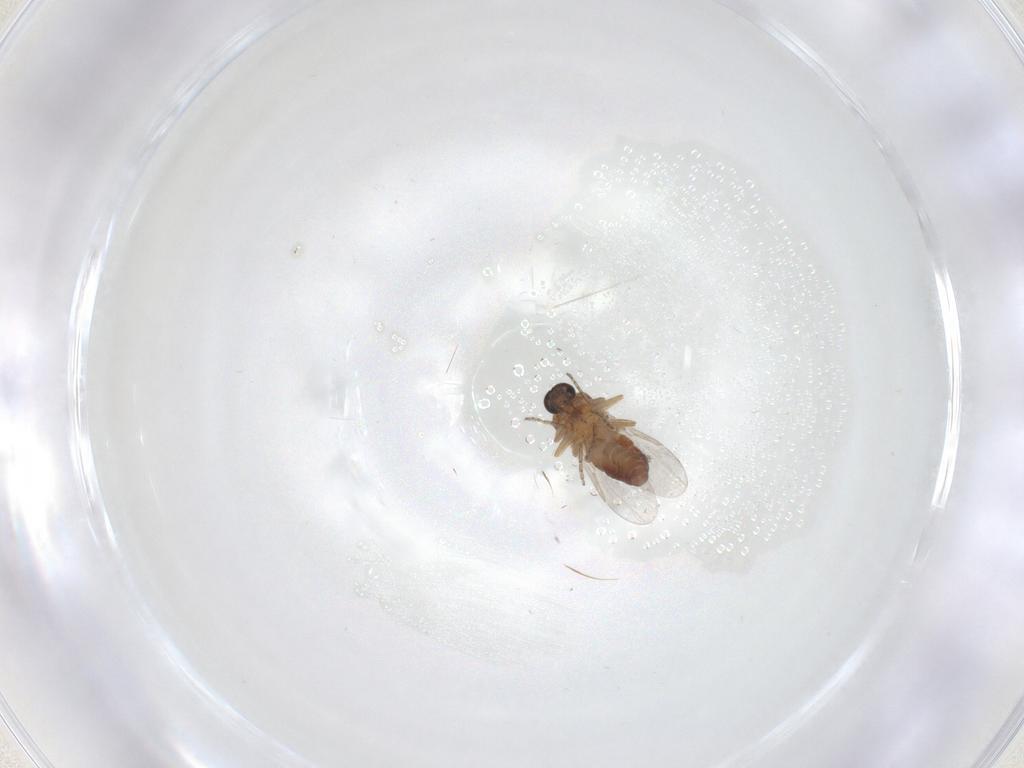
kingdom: Animalia
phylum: Arthropoda
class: Insecta
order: Diptera
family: Ceratopogonidae
